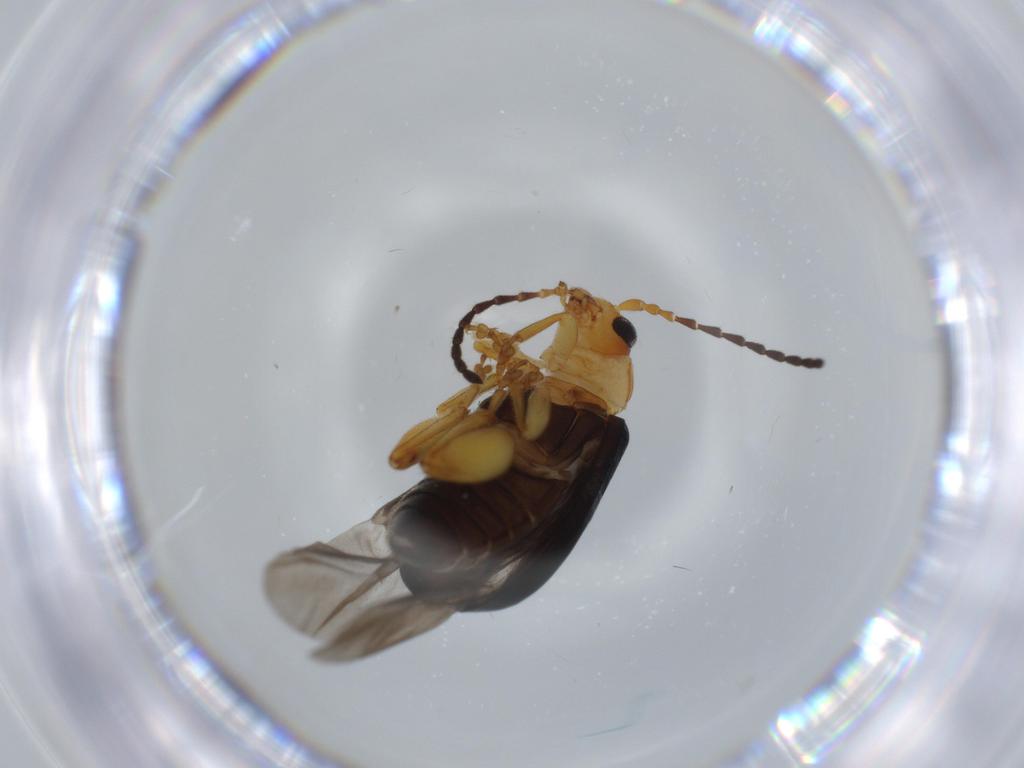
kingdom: Animalia
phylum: Arthropoda
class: Insecta
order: Coleoptera
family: Chrysomelidae
